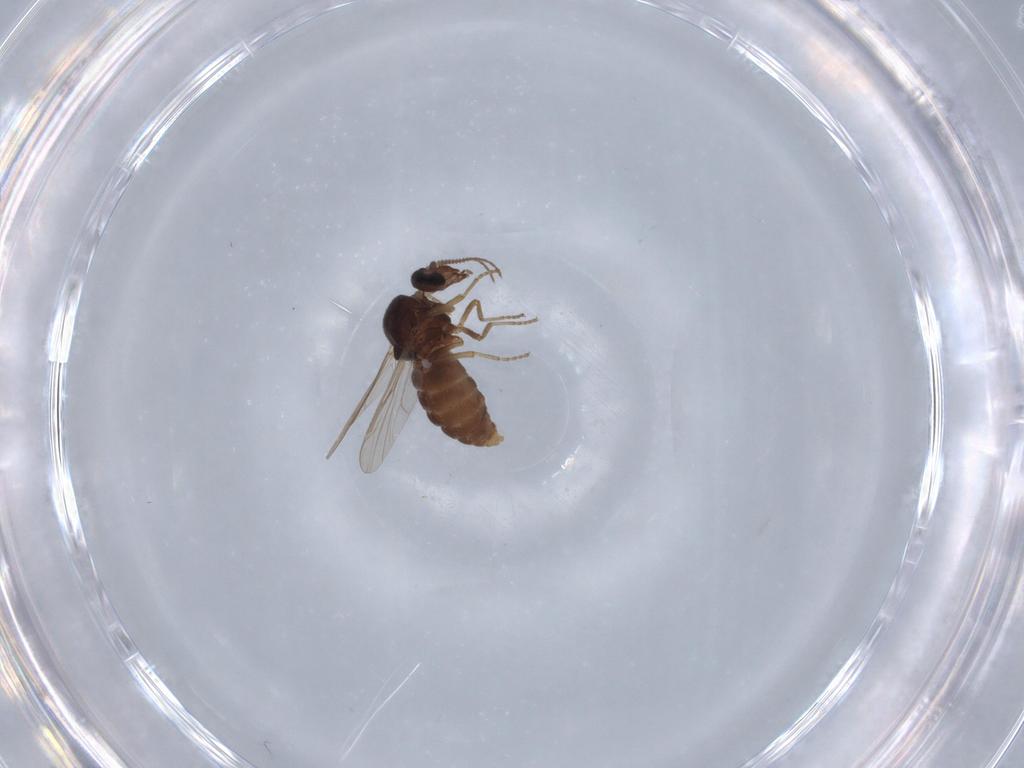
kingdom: Animalia
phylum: Arthropoda
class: Insecta
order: Diptera
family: Ceratopogonidae
